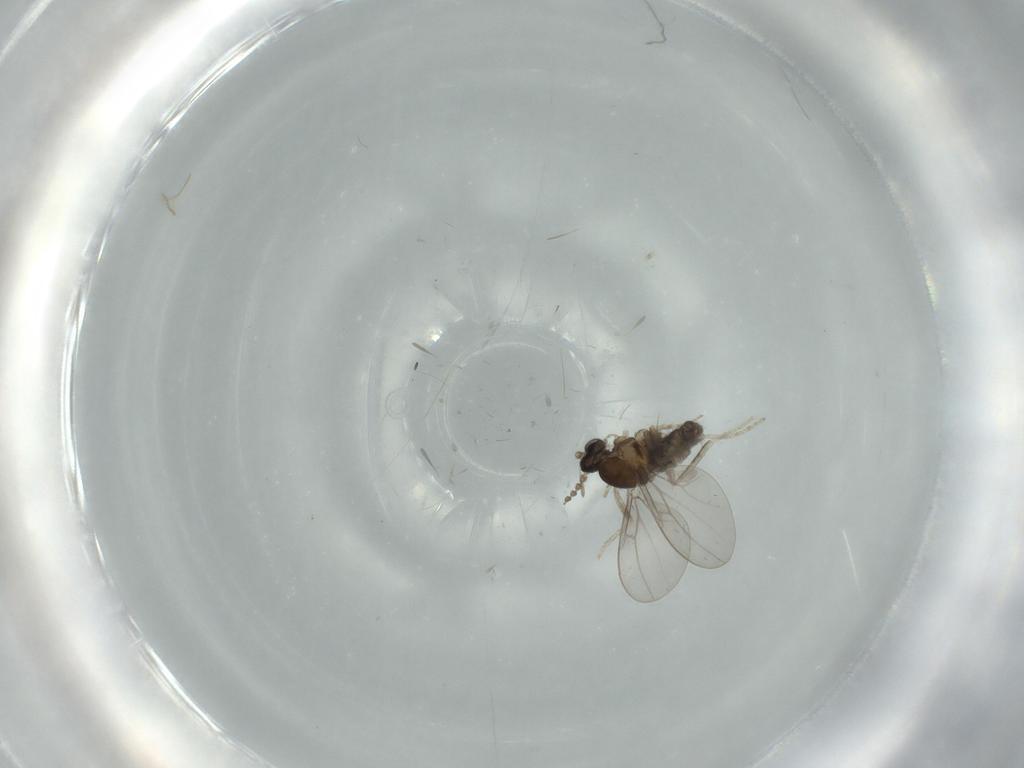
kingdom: Animalia
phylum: Arthropoda
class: Insecta
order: Diptera
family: Cecidomyiidae
